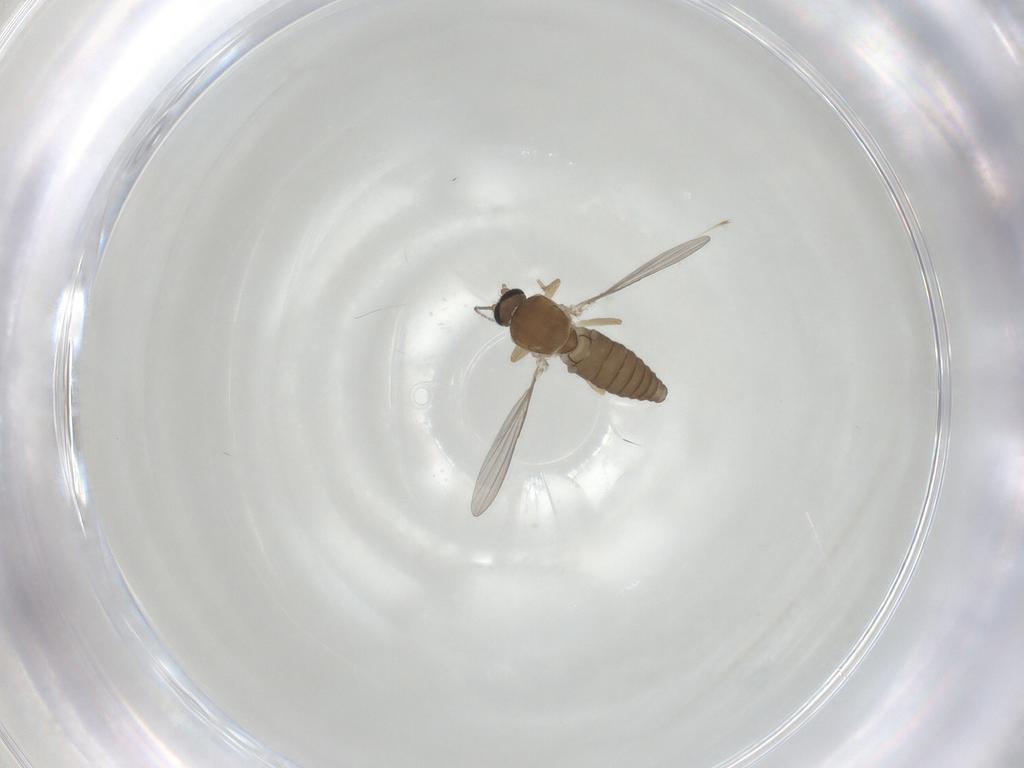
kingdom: Animalia
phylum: Arthropoda
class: Insecta
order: Diptera
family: Ceratopogonidae
